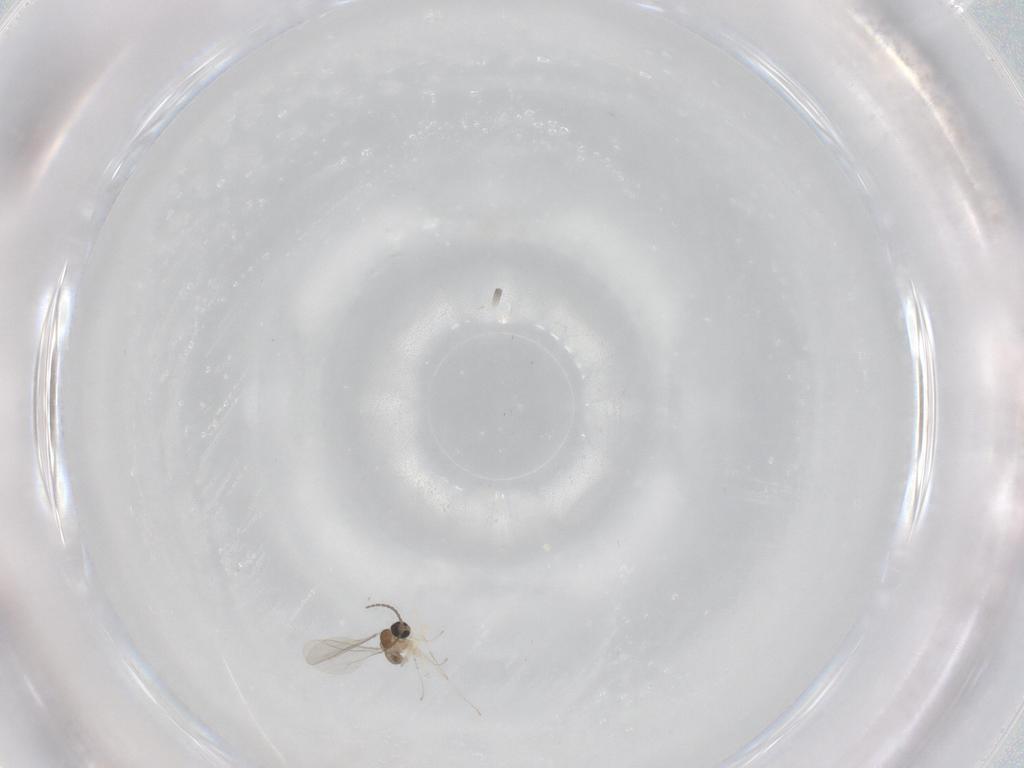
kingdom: Animalia
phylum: Arthropoda
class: Insecta
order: Diptera
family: Cecidomyiidae
